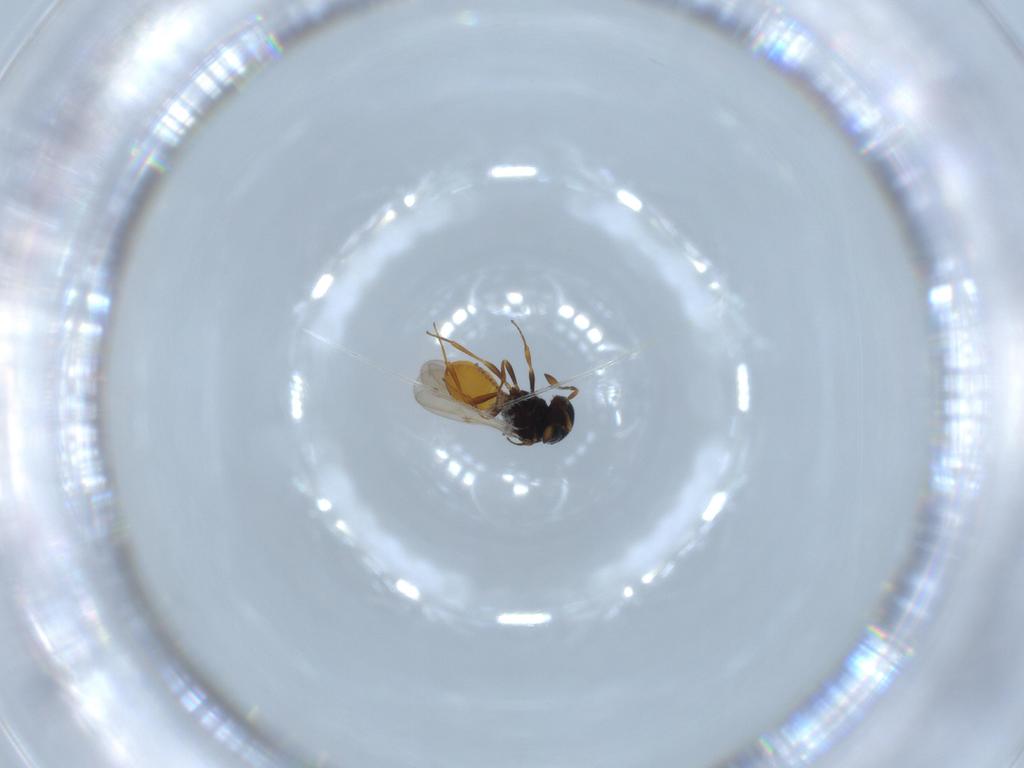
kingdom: Animalia
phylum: Arthropoda
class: Insecta
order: Hymenoptera
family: Scelionidae
